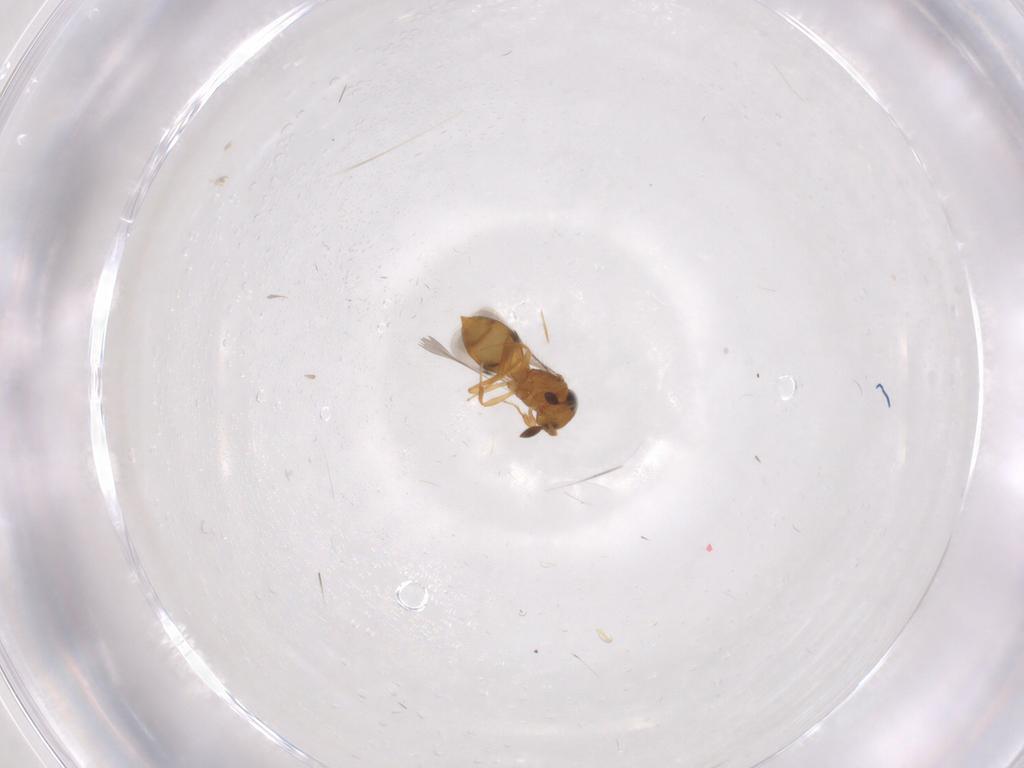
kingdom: Animalia
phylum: Arthropoda
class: Insecta
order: Hymenoptera
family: Scelionidae
